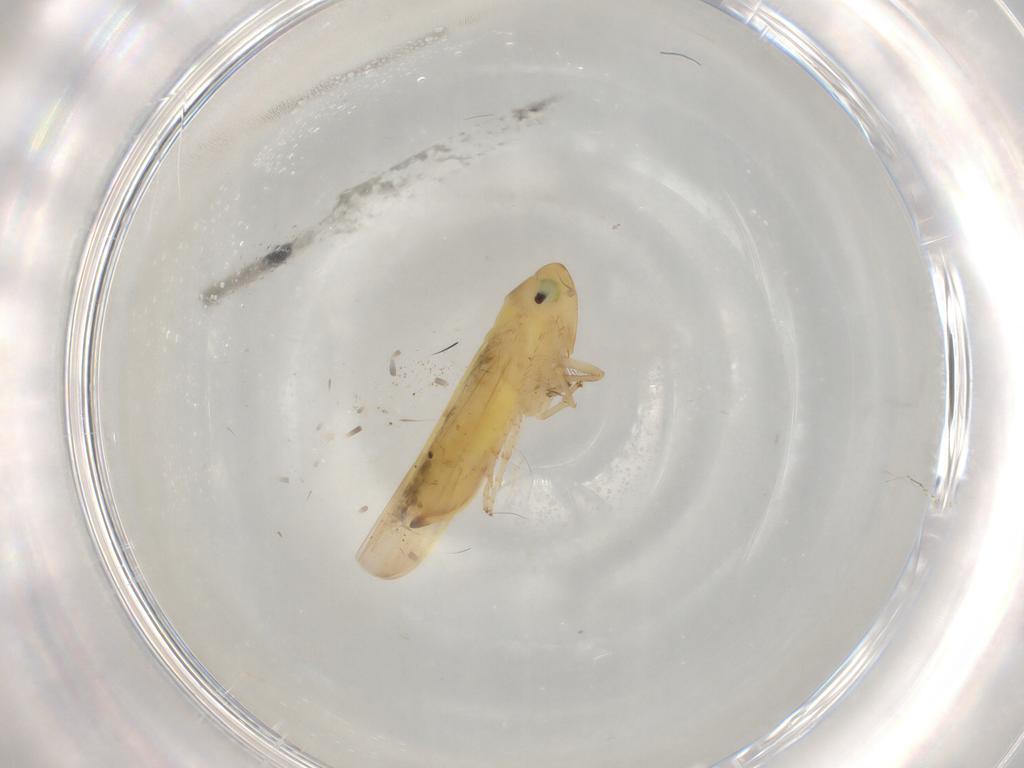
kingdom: Animalia
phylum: Arthropoda
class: Insecta
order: Hemiptera
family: Cicadellidae
